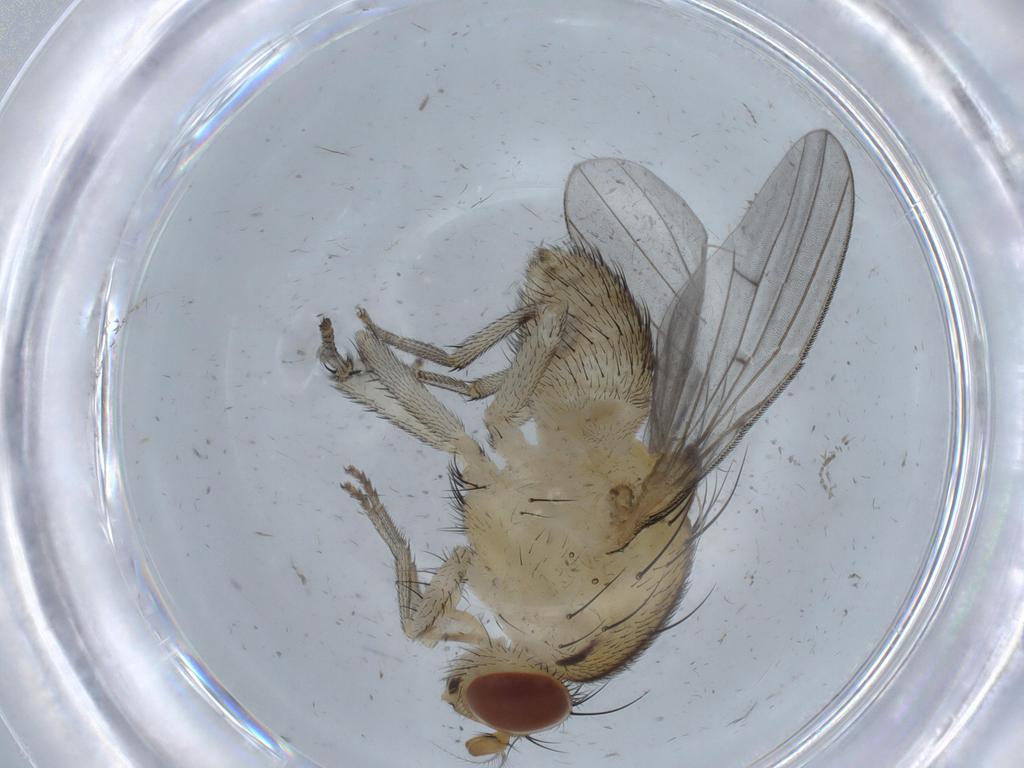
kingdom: Animalia
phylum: Arthropoda
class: Insecta
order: Diptera
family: Lauxaniidae
